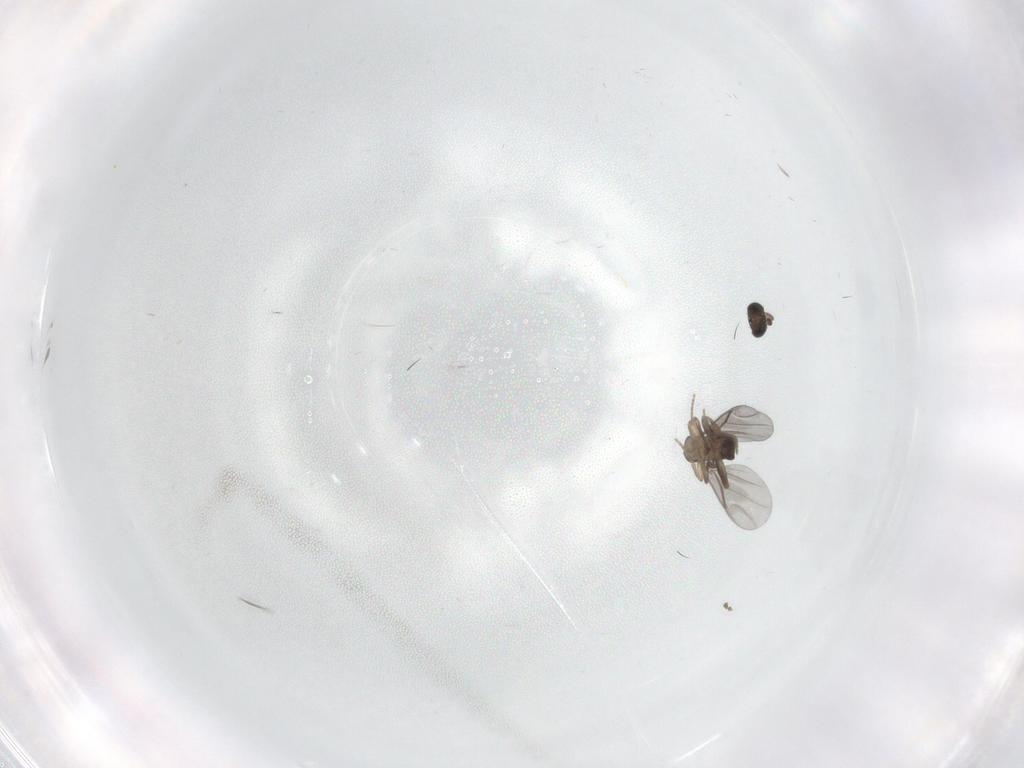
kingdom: Animalia
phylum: Arthropoda
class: Insecta
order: Diptera
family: Cecidomyiidae
